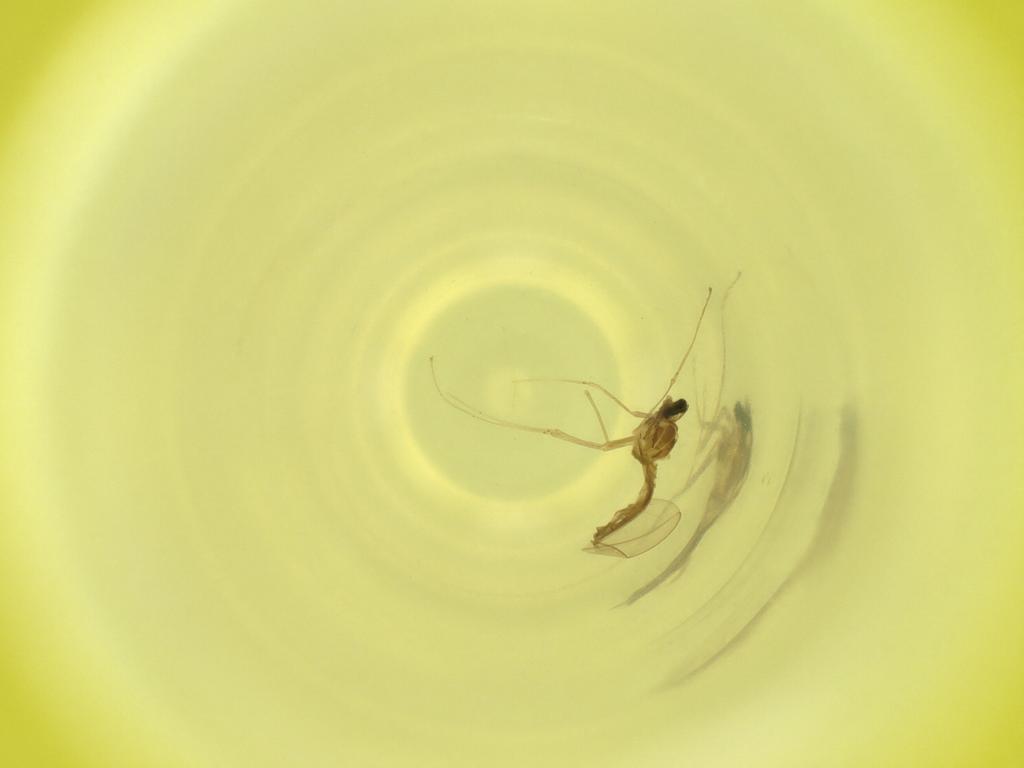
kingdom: Animalia
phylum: Arthropoda
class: Insecta
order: Diptera
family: Cecidomyiidae
